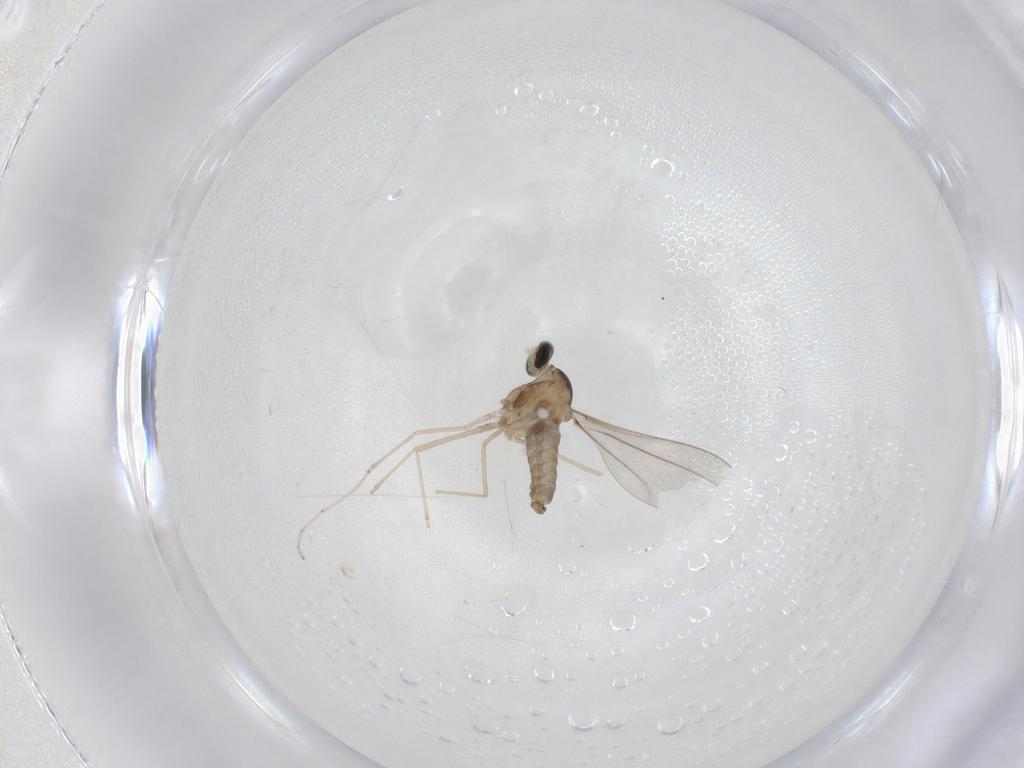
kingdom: Animalia
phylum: Arthropoda
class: Insecta
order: Diptera
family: Cecidomyiidae
